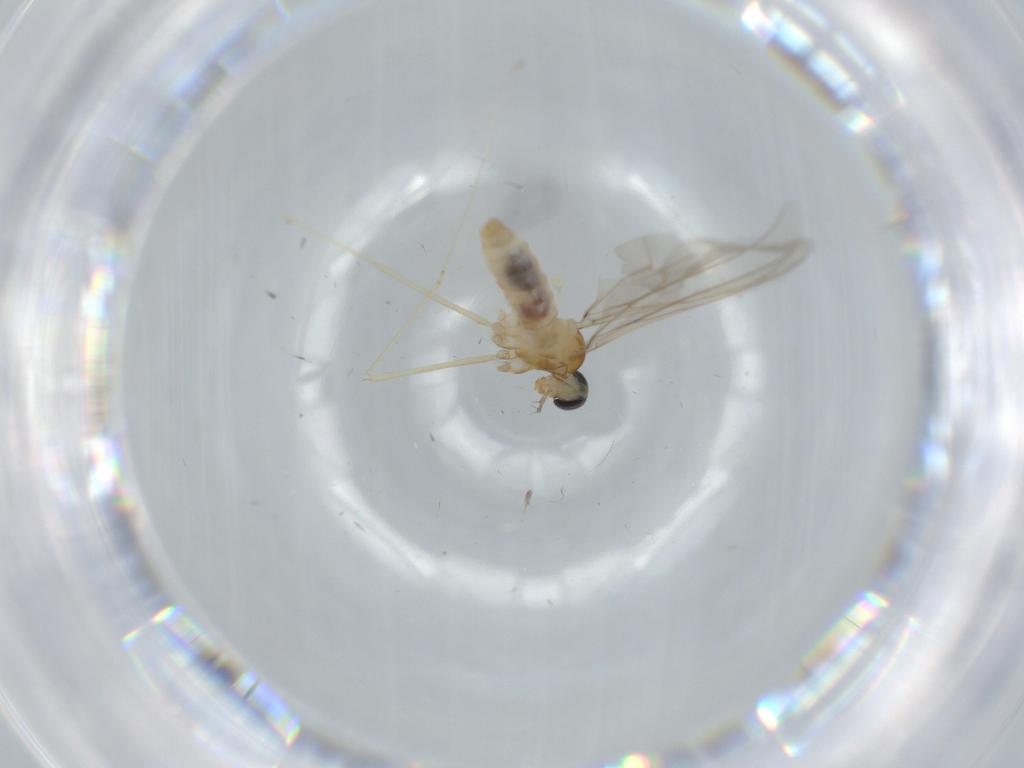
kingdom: Animalia
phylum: Arthropoda
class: Insecta
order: Diptera
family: Cecidomyiidae
